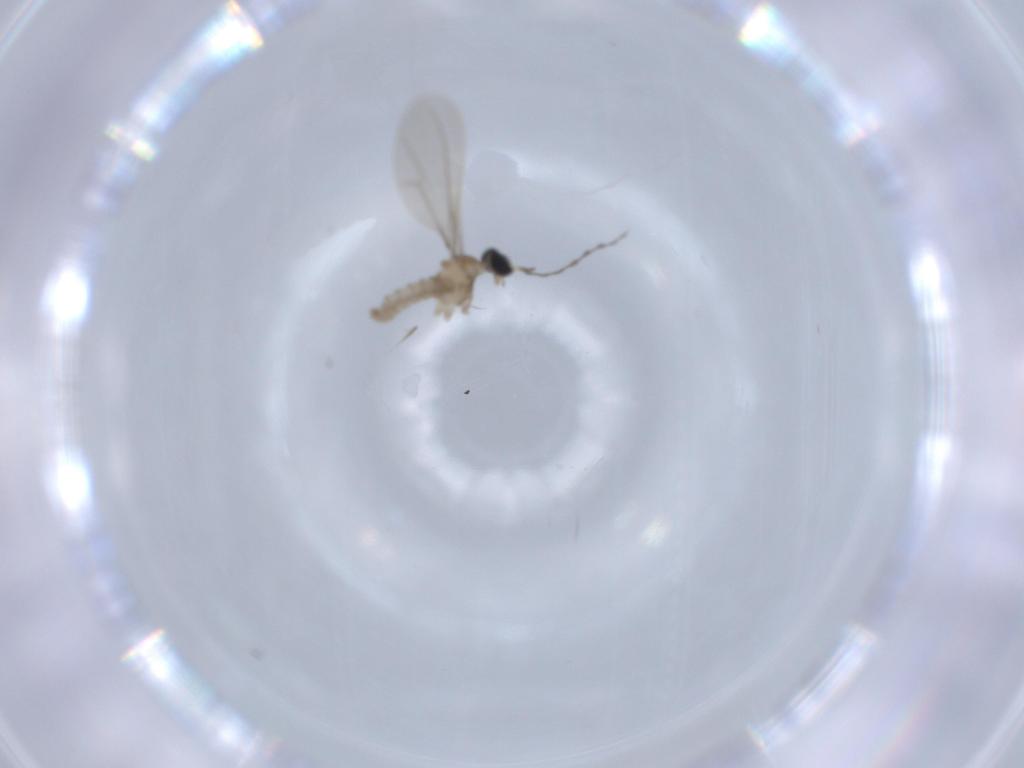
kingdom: Animalia
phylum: Arthropoda
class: Insecta
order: Diptera
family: Cecidomyiidae
